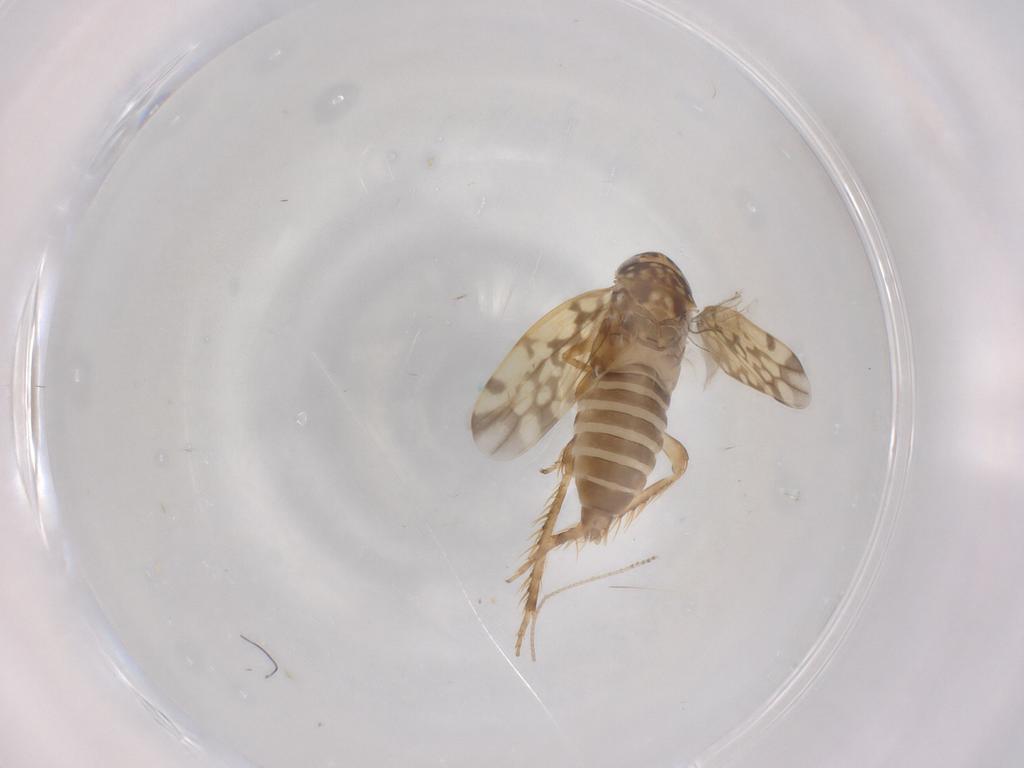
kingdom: Animalia
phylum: Arthropoda
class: Insecta
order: Hemiptera
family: Cicadellidae
